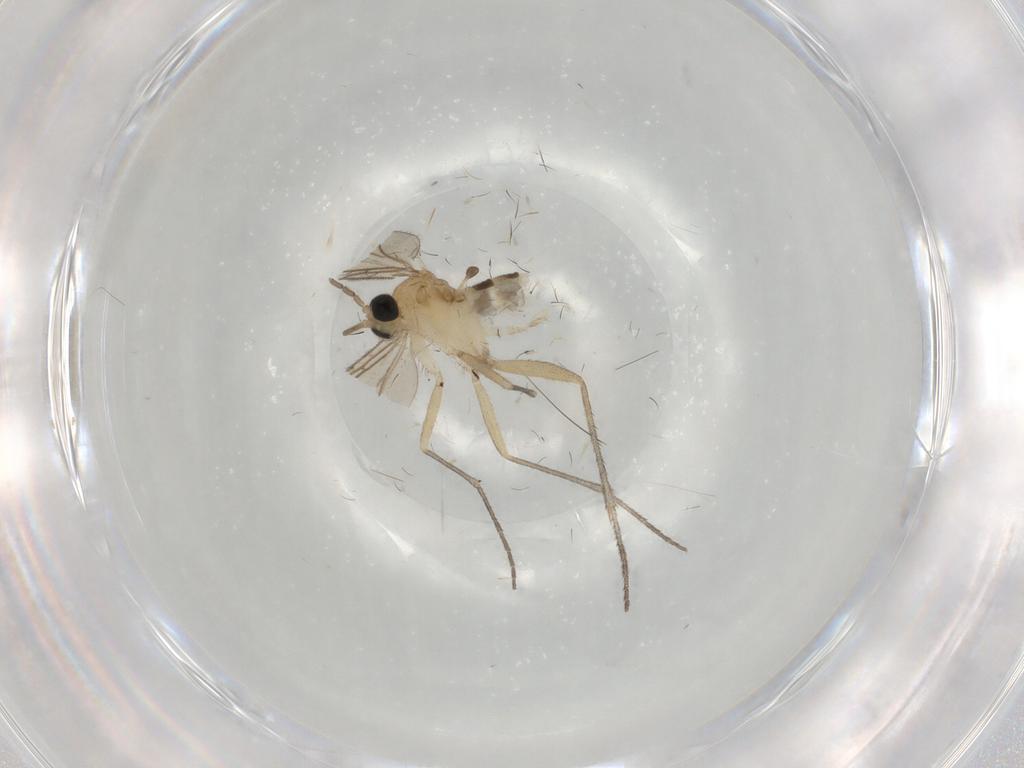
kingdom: Animalia
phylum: Arthropoda
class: Insecta
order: Diptera
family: Sciaridae
